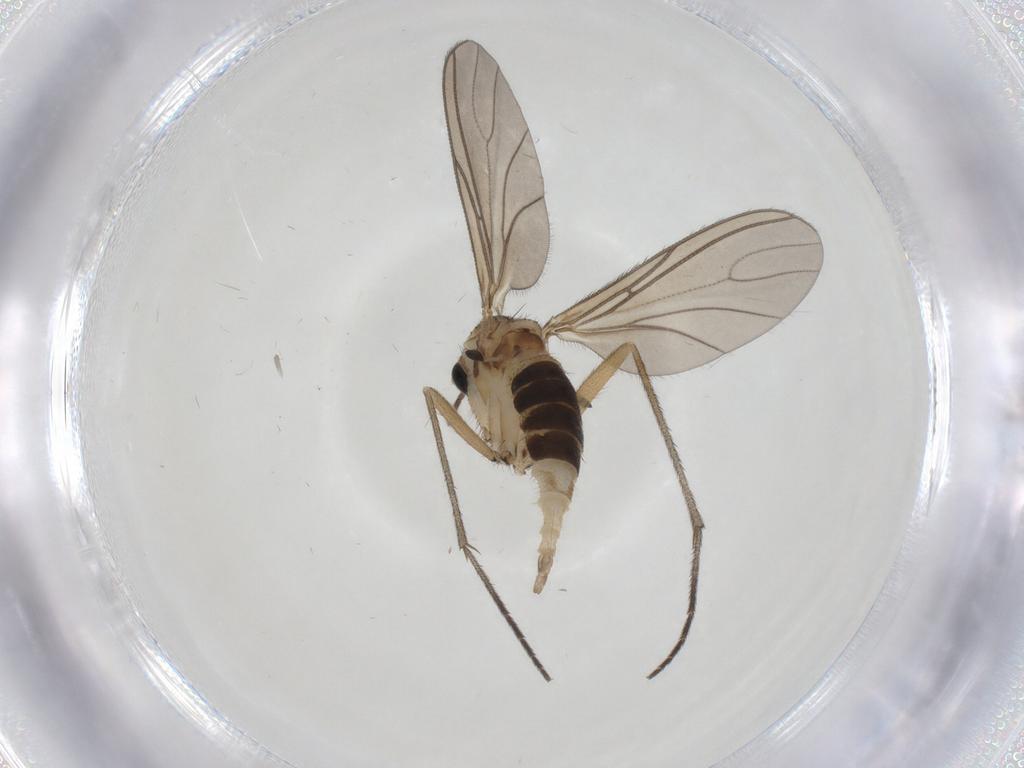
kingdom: Animalia
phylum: Arthropoda
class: Insecta
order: Diptera
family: Sciaridae
